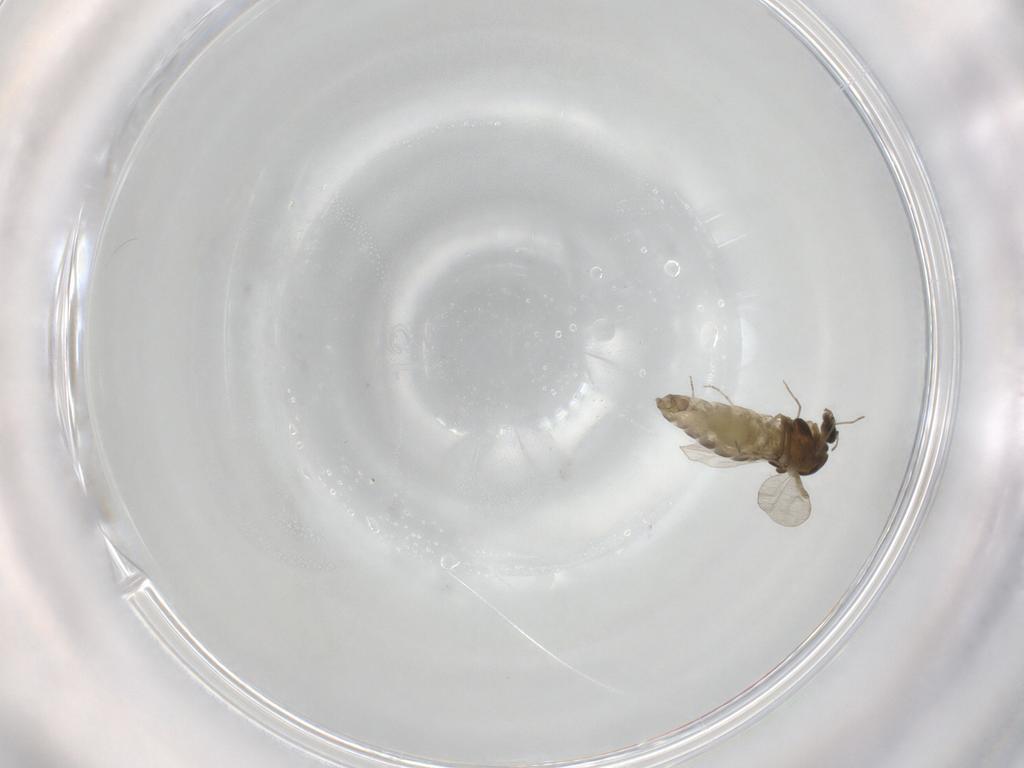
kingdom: Animalia
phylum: Arthropoda
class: Insecta
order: Diptera
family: Chironomidae
